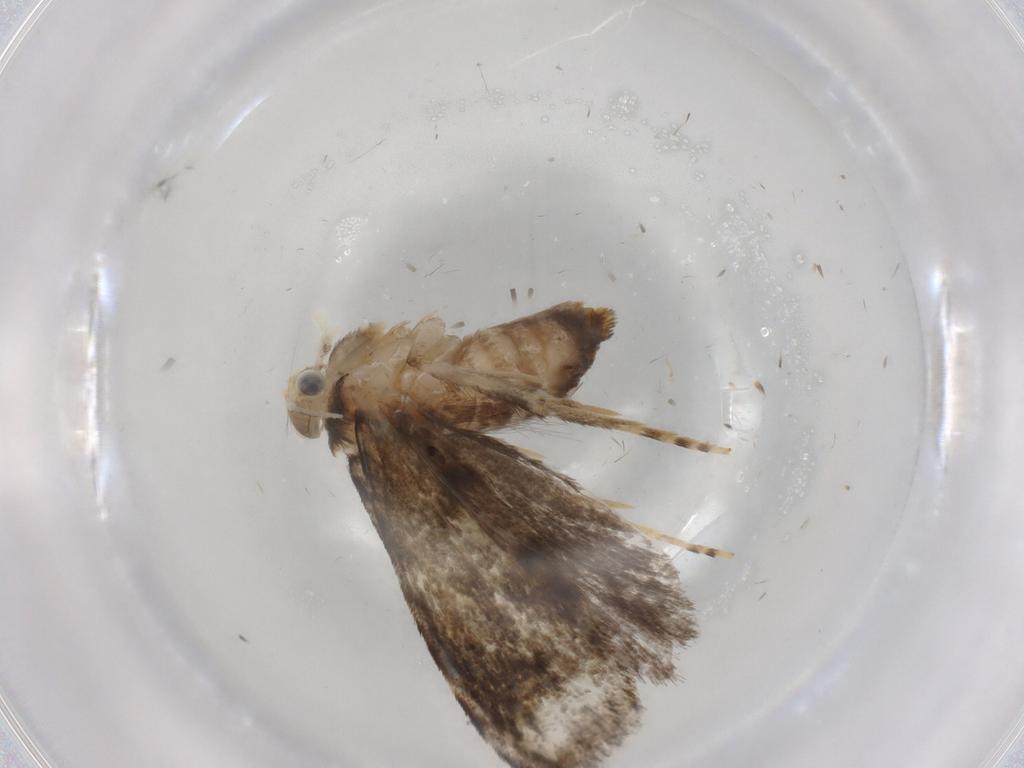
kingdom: Animalia
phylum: Arthropoda
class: Insecta
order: Lepidoptera
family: Tineidae
